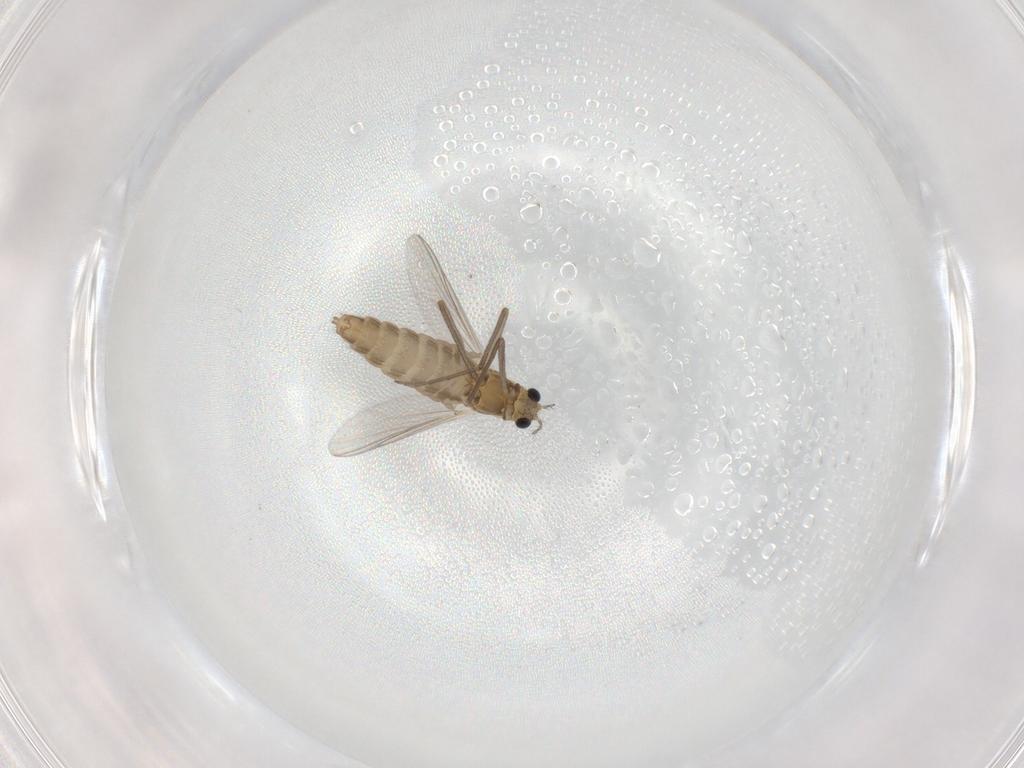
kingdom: Animalia
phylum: Arthropoda
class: Insecta
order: Diptera
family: Chironomidae
